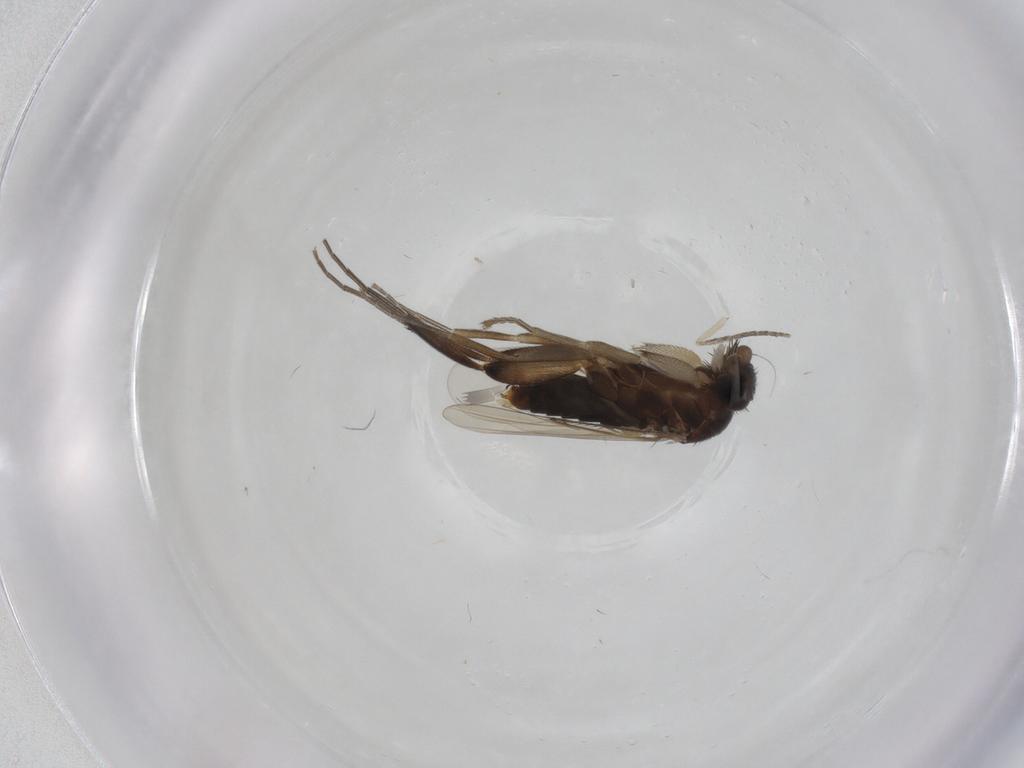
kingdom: Animalia
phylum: Arthropoda
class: Insecta
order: Diptera
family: Phoridae
